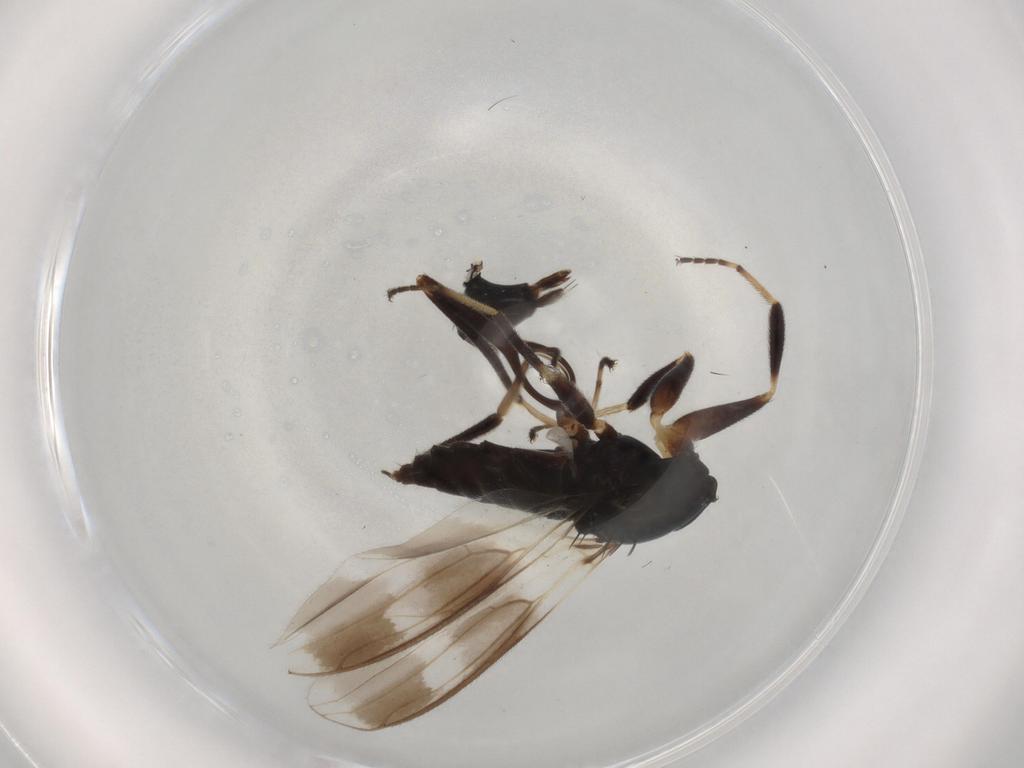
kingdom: Animalia
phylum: Arthropoda
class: Insecta
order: Diptera
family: Hybotidae
